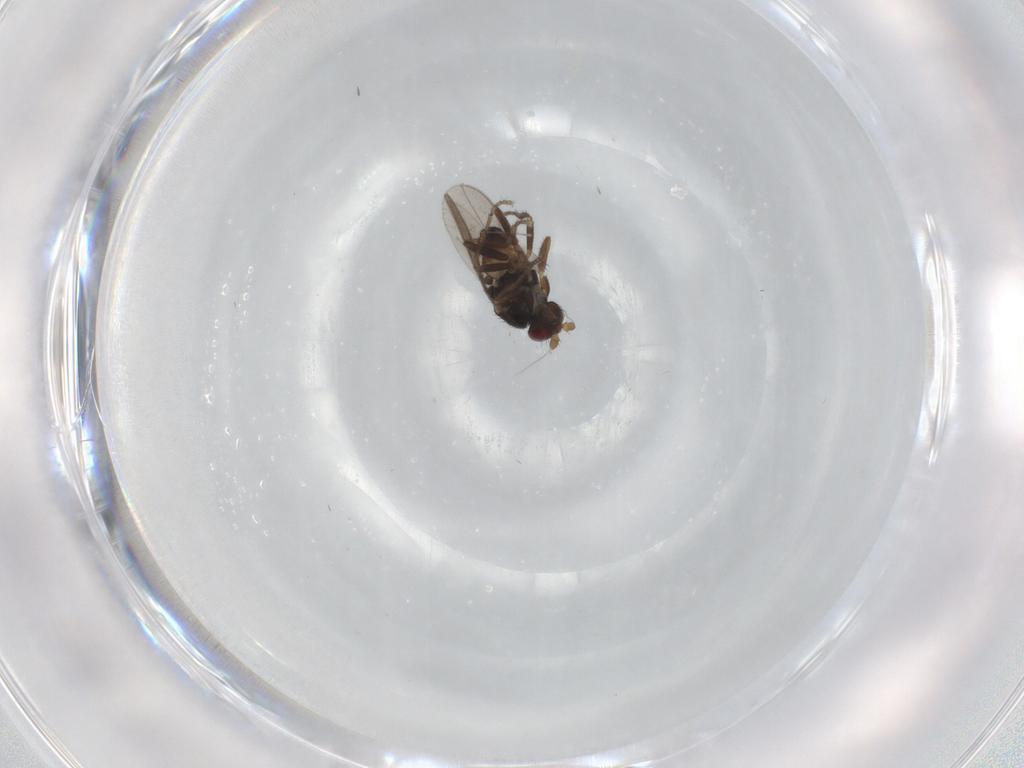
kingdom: Animalia
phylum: Arthropoda
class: Insecta
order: Diptera
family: Sphaeroceridae
